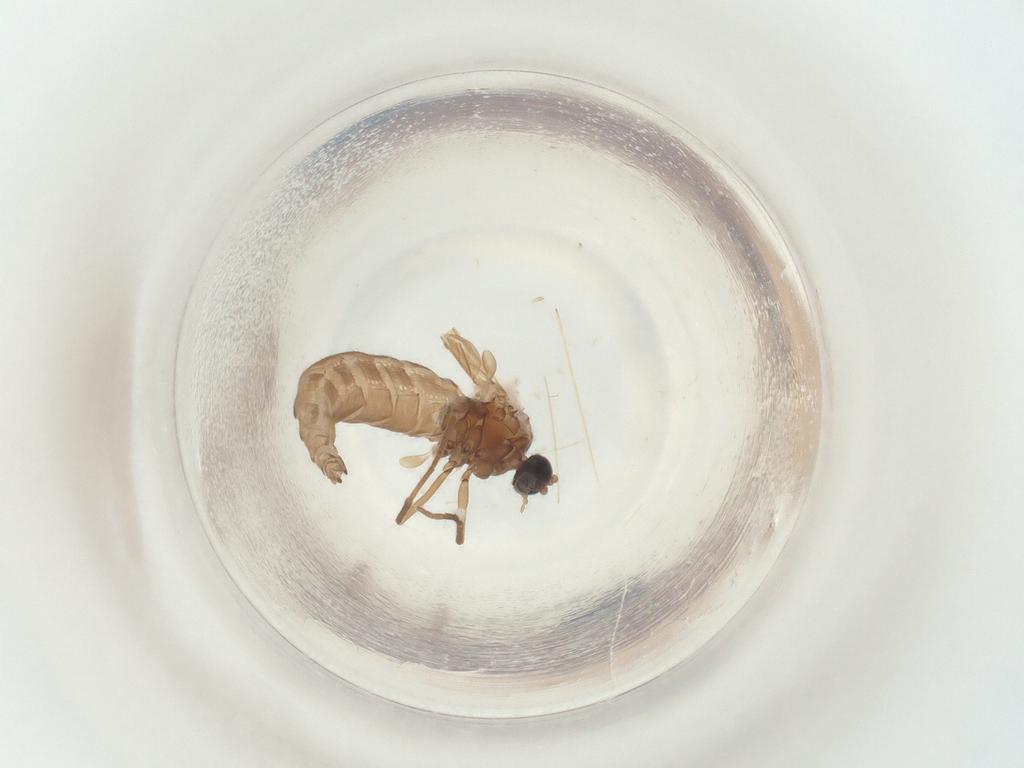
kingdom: Animalia
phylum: Arthropoda
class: Insecta
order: Diptera
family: Sciaridae
